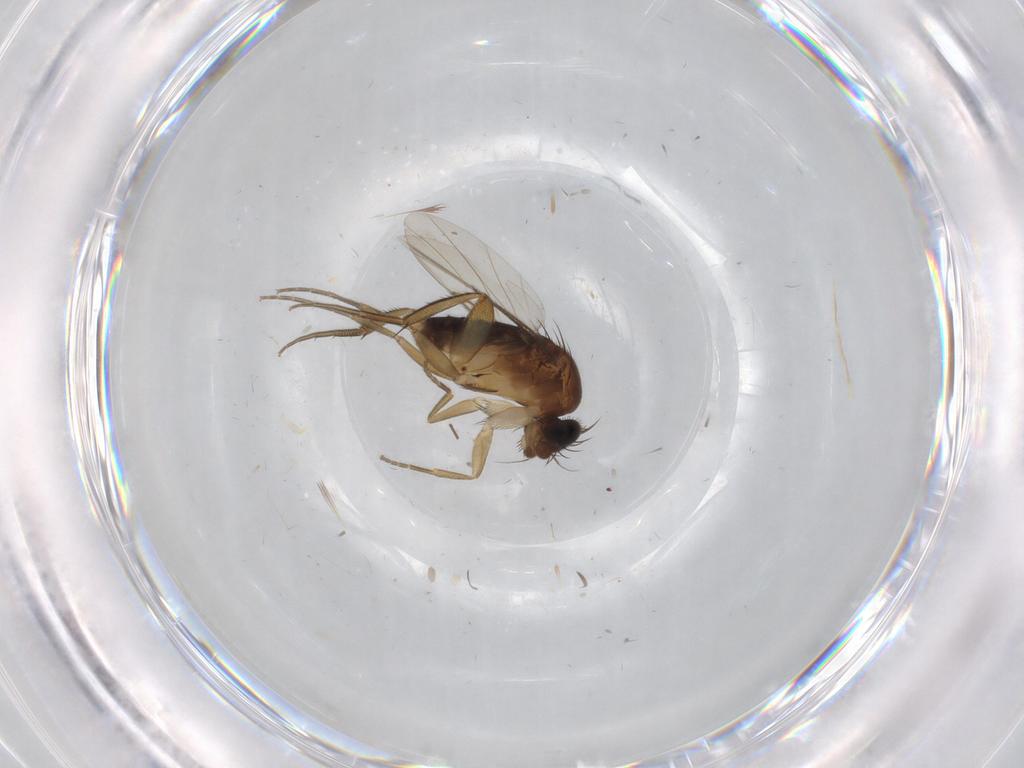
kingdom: Animalia
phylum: Arthropoda
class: Insecta
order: Diptera
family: Phoridae
